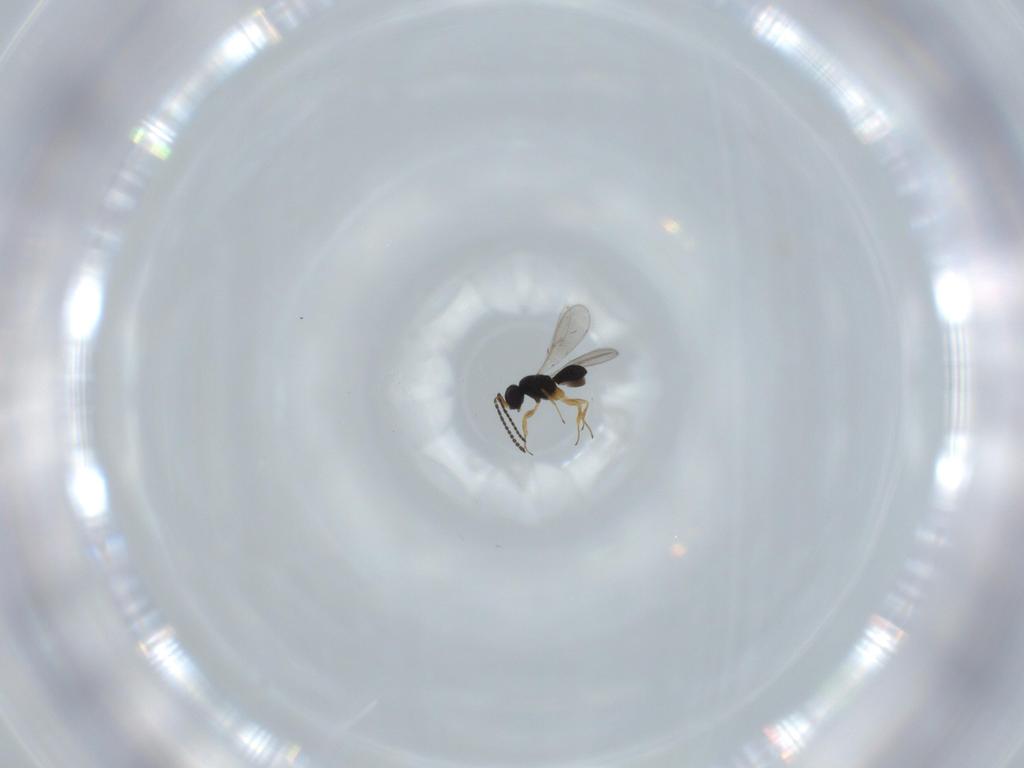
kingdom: Animalia
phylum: Arthropoda
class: Insecta
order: Hymenoptera
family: Scelionidae
